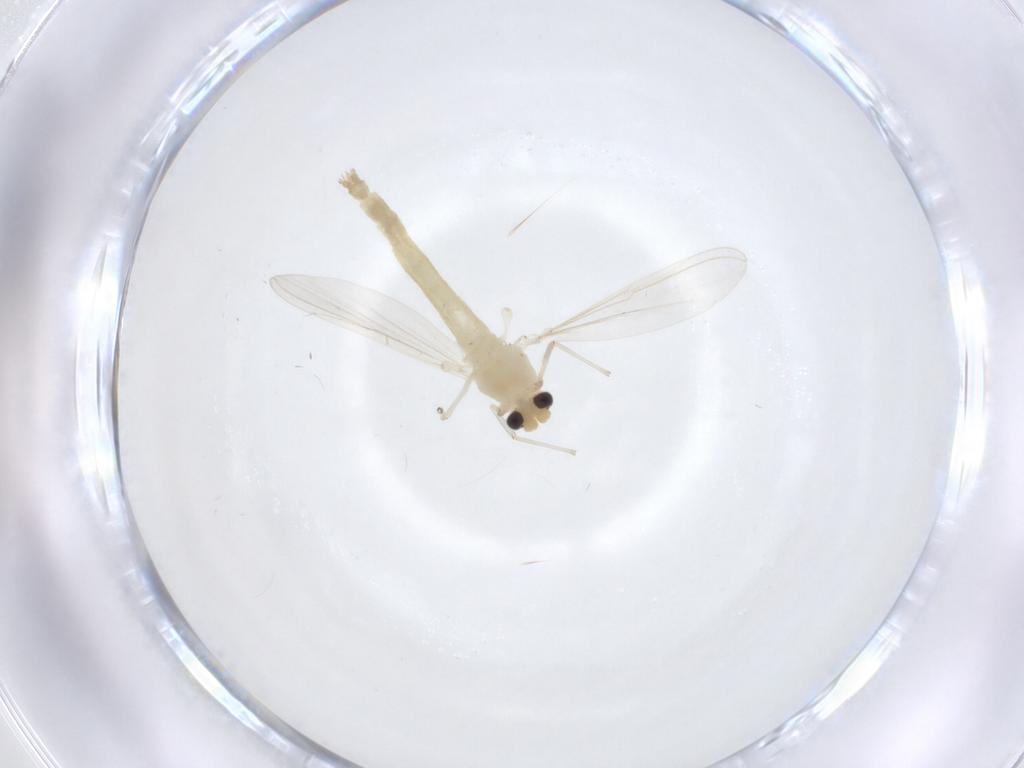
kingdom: Animalia
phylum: Arthropoda
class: Insecta
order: Diptera
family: Chironomidae
